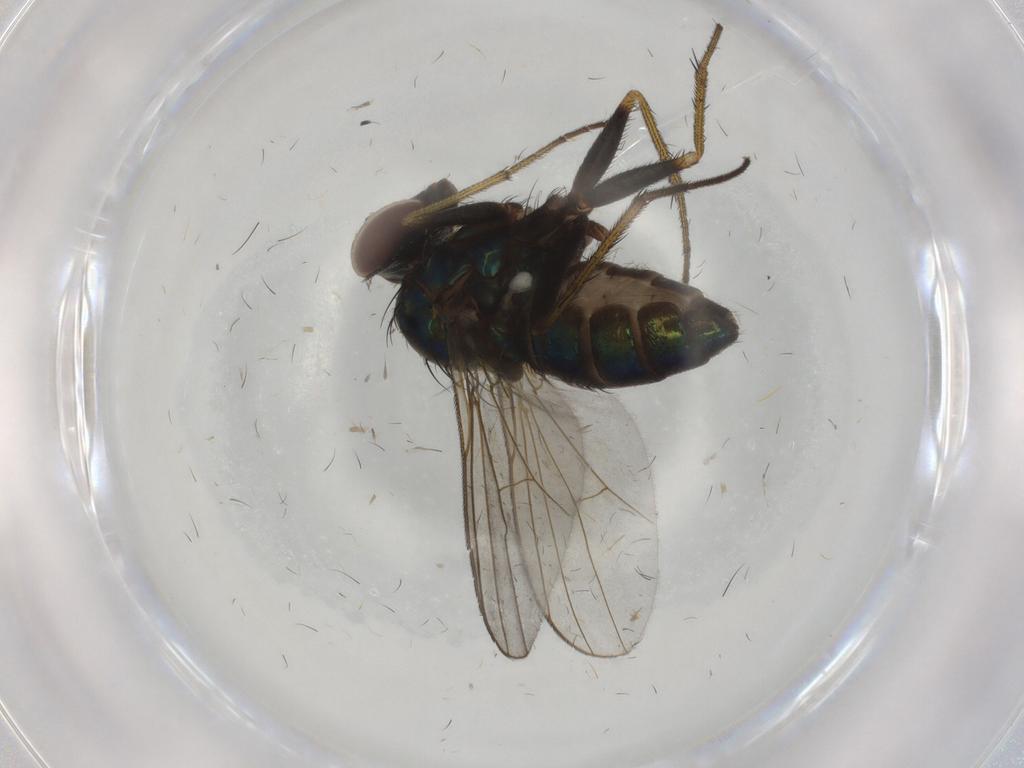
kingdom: Animalia
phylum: Arthropoda
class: Insecta
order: Diptera
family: Dolichopodidae
